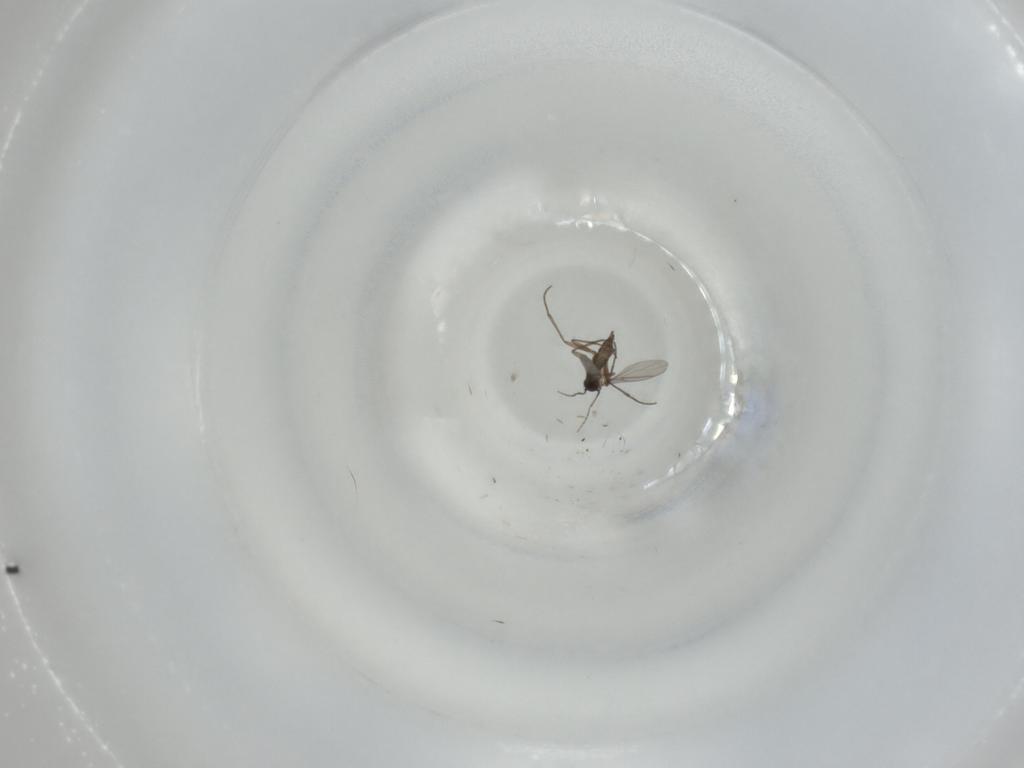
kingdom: Animalia
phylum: Arthropoda
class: Insecta
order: Diptera
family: Sciaridae
